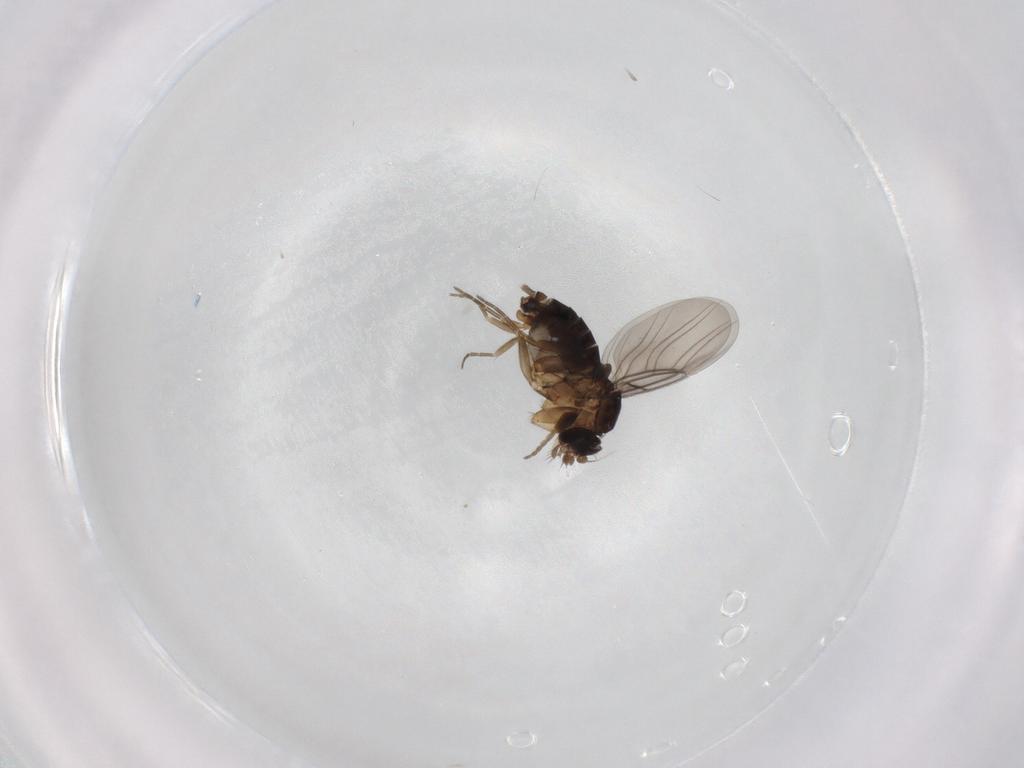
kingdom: Animalia
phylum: Arthropoda
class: Insecta
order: Diptera
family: Phoridae
